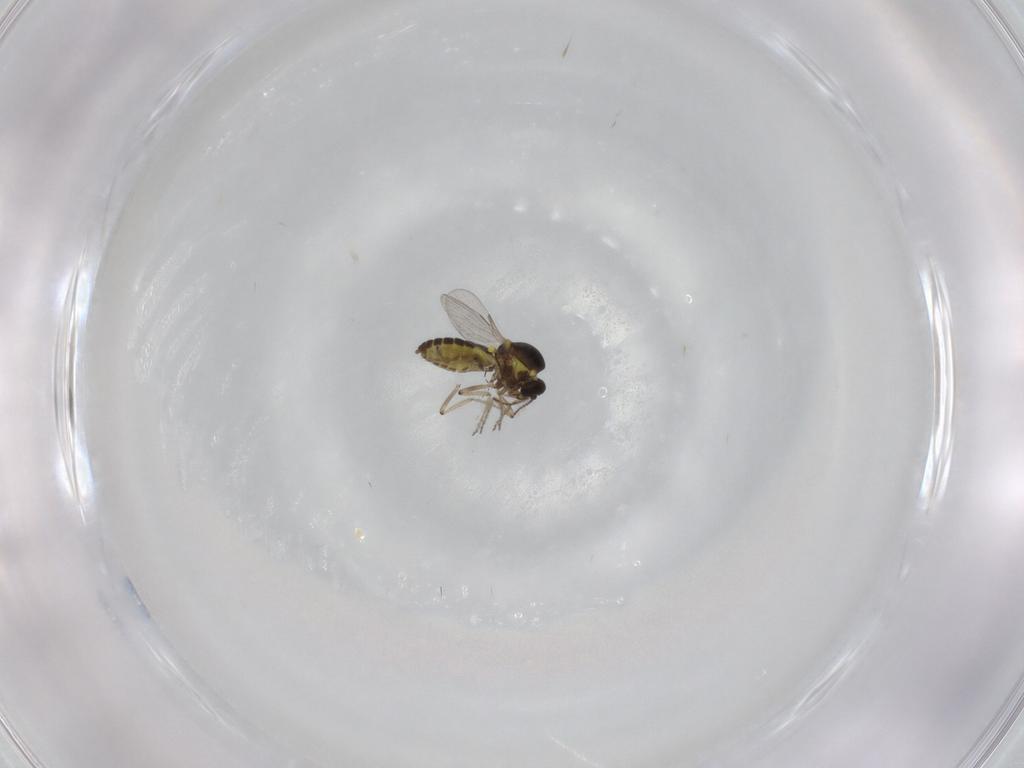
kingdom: Animalia
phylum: Arthropoda
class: Insecta
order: Diptera
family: Ceratopogonidae
